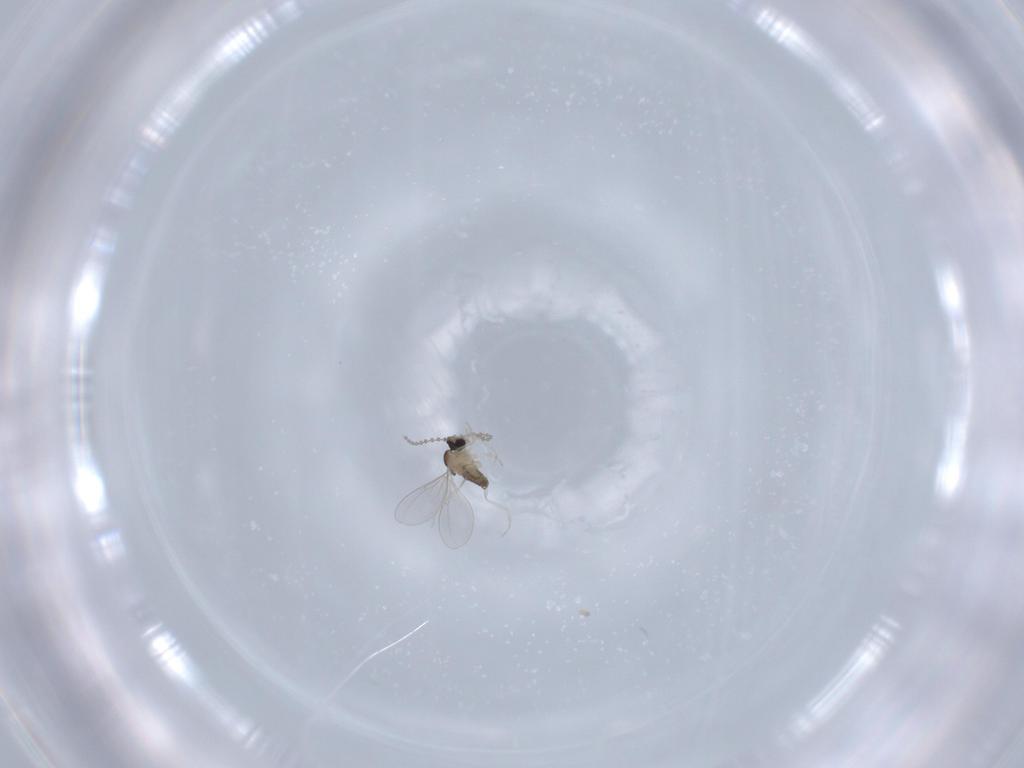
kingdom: Animalia
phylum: Arthropoda
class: Insecta
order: Diptera
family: Cecidomyiidae
